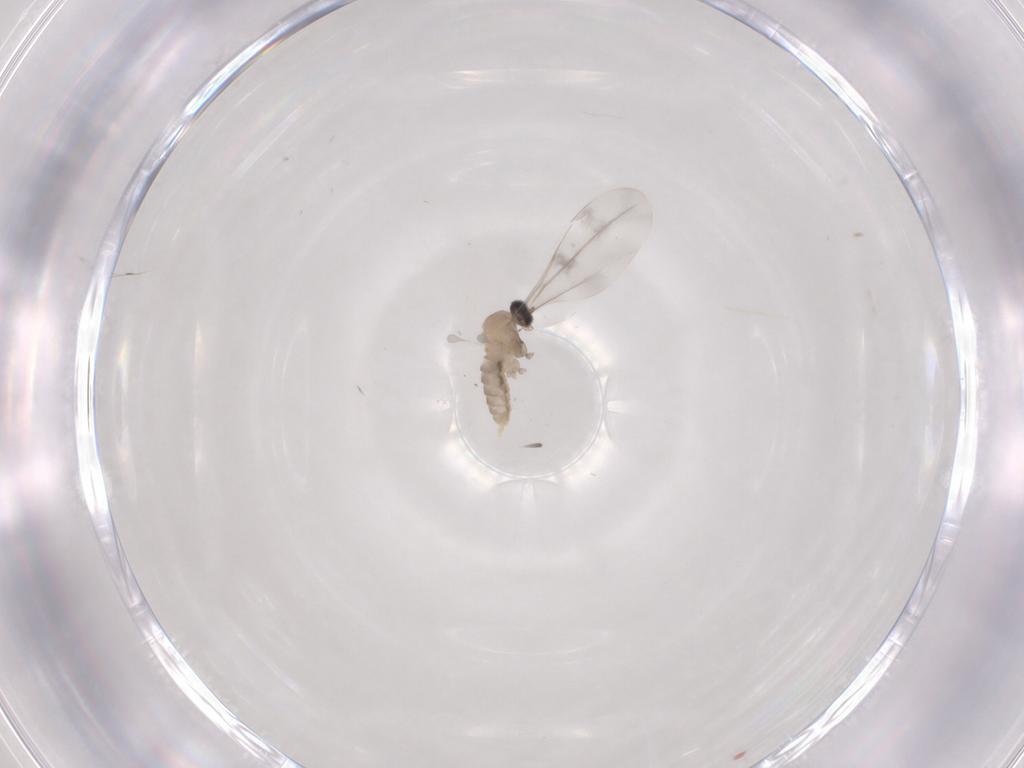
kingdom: Animalia
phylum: Arthropoda
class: Insecta
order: Diptera
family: Cecidomyiidae
